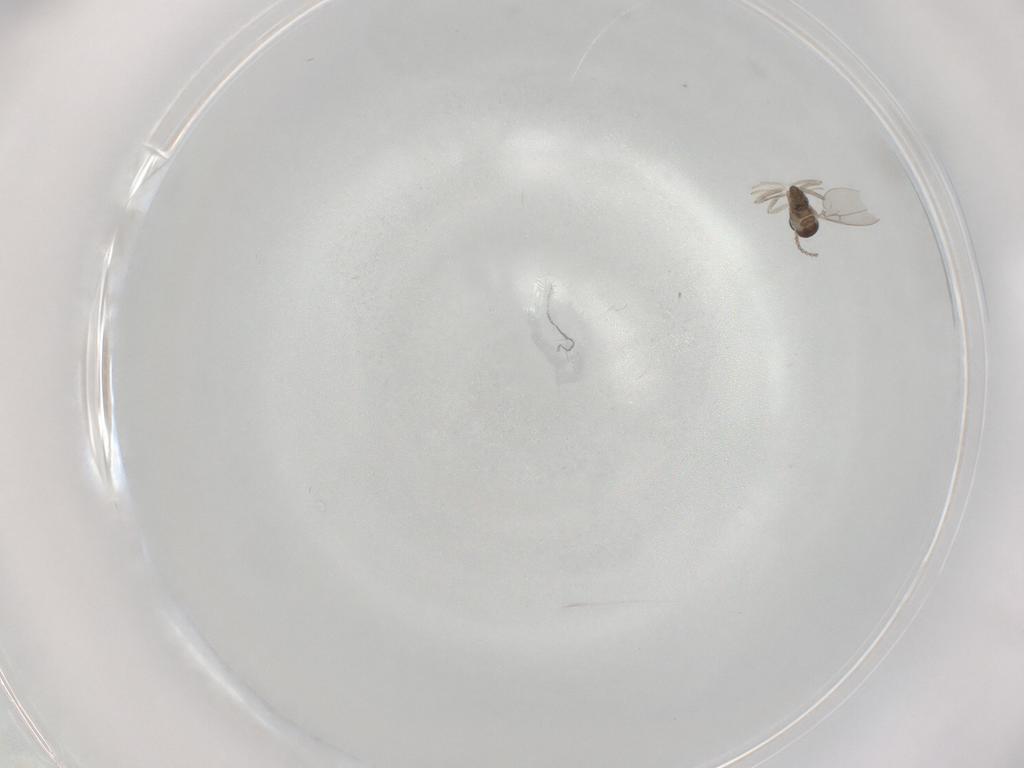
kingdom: Animalia
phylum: Arthropoda
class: Insecta
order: Diptera
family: Cecidomyiidae
